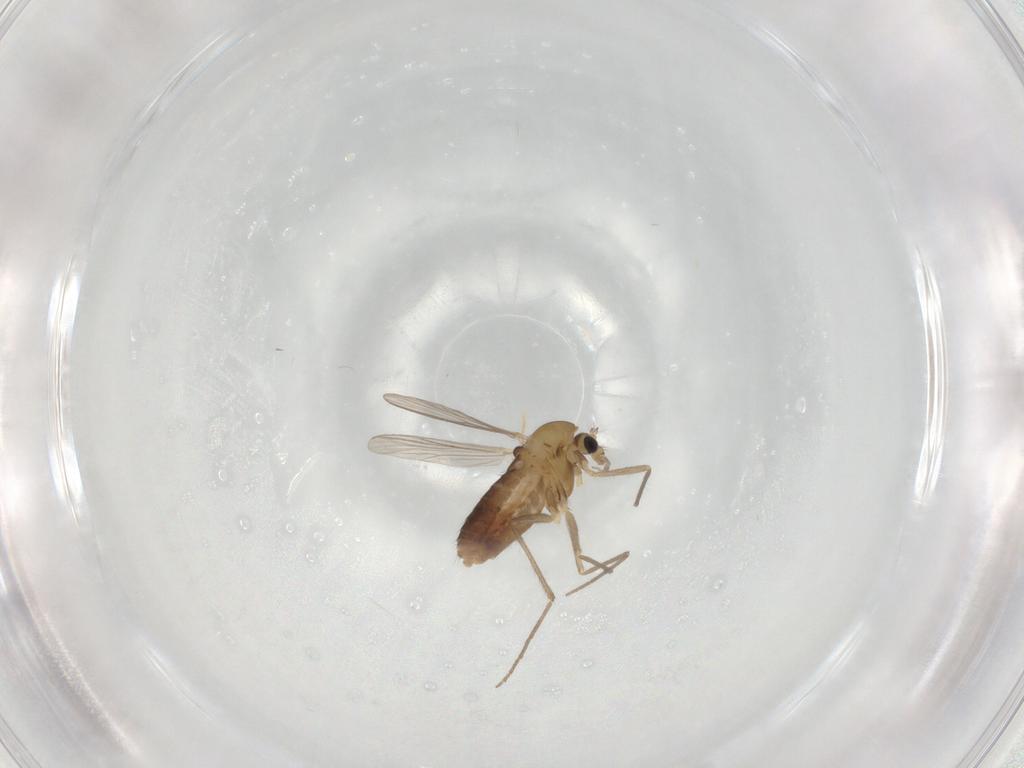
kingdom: Animalia
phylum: Arthropoda
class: Insecta
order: Diptera
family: Chironomidae
